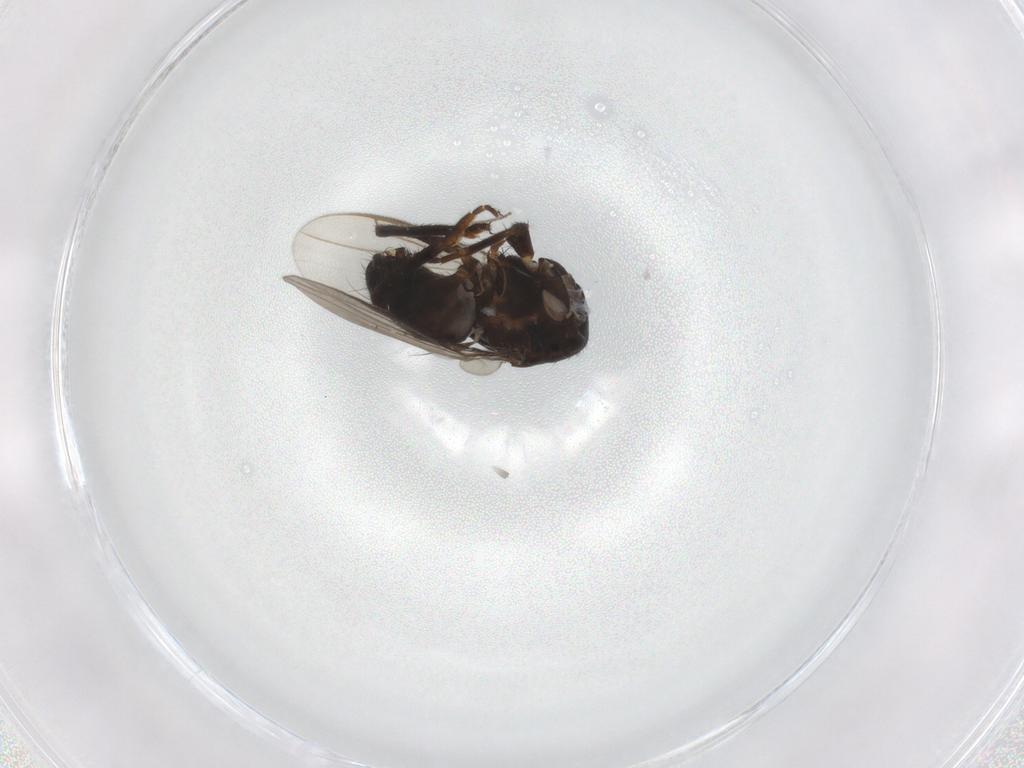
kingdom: Animalia
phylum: Arthropoda
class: Insecta
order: Diptera
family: Sphaeroceridae
